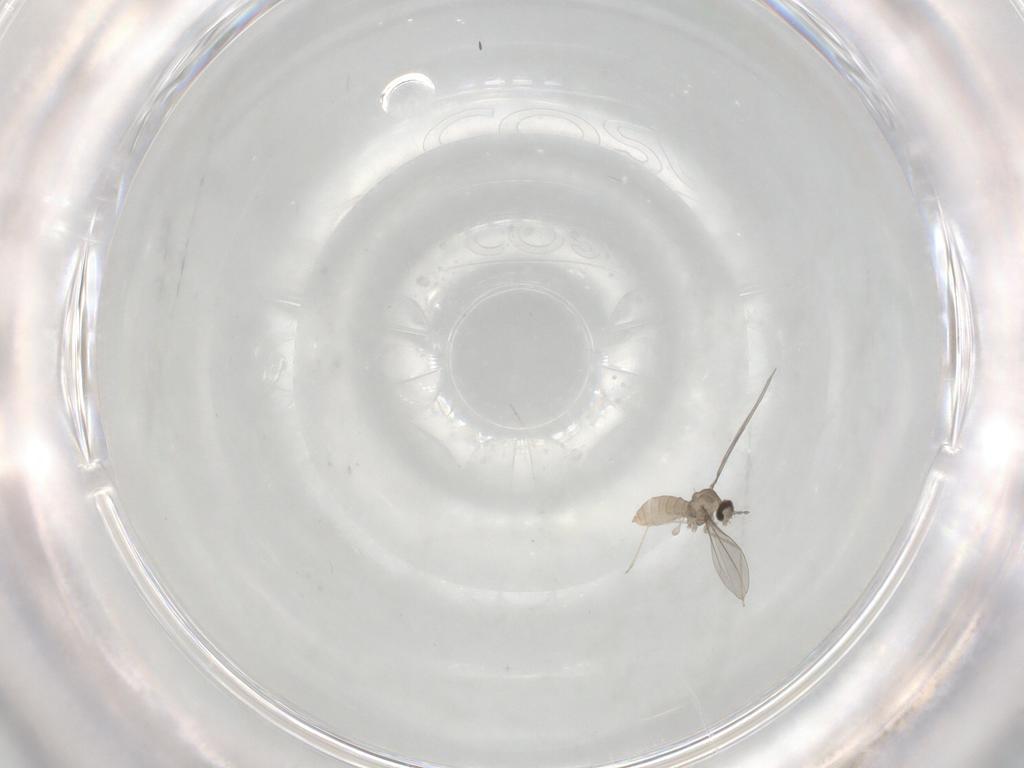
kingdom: Animalia
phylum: Arthropoda
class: Insecta
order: Diptera
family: Cecidomyiidae
